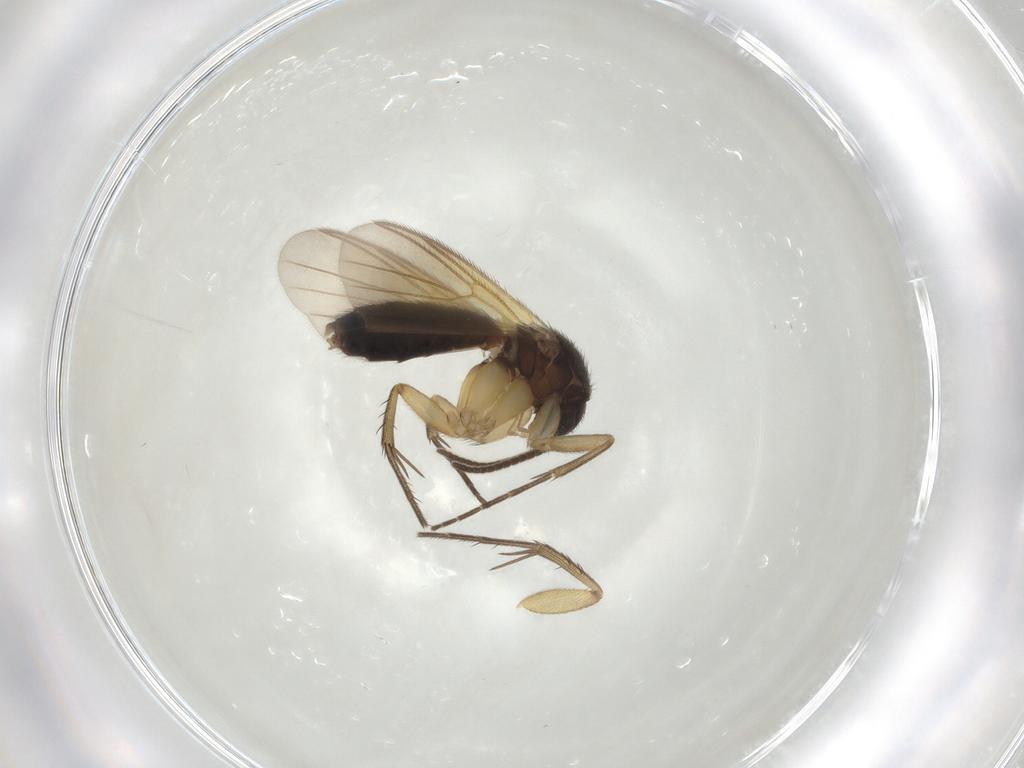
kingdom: Animalia
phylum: Arthropoda
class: Insecta
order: Diptera
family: Mycetophilidae
